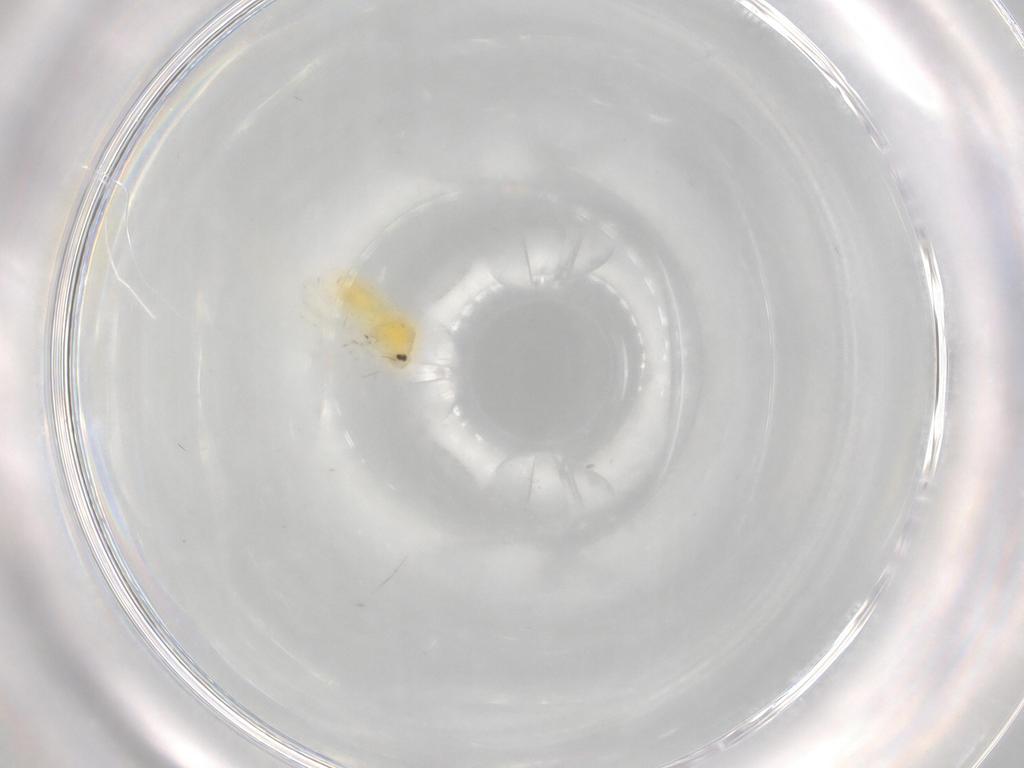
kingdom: Animalia
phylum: Arthropoda
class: Insecta
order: Hemiptera
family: Aleyrodidae
